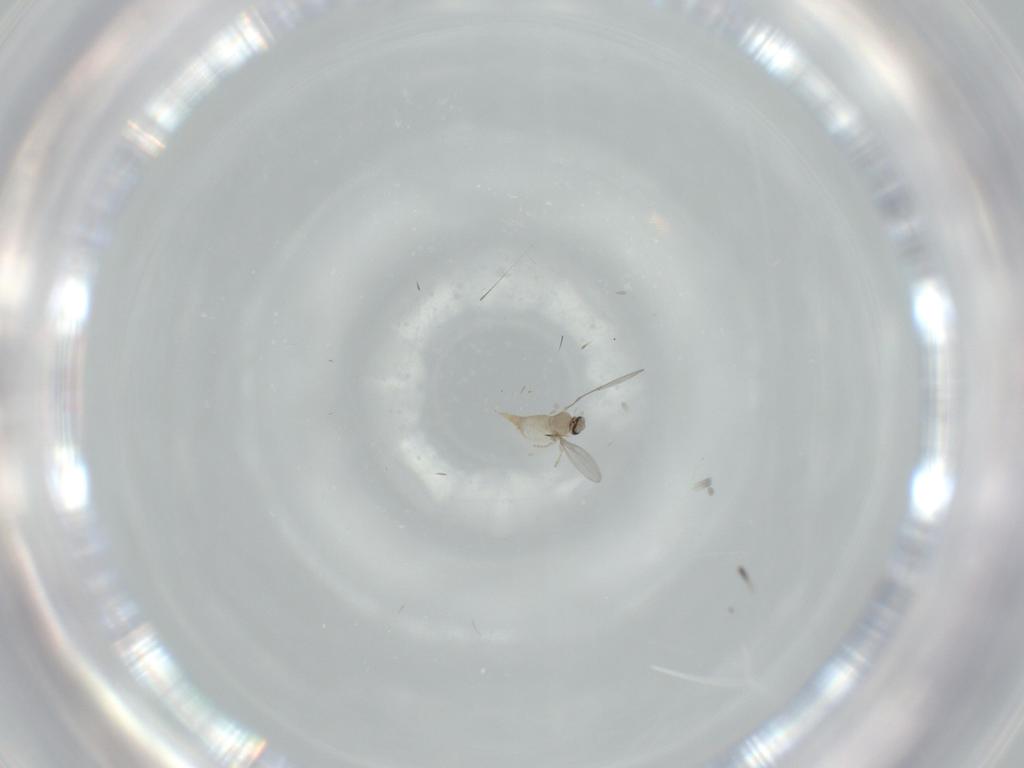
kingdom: Animalia
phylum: Arthropoda
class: Insecta
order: Diptera
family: Cecidomyiidae
